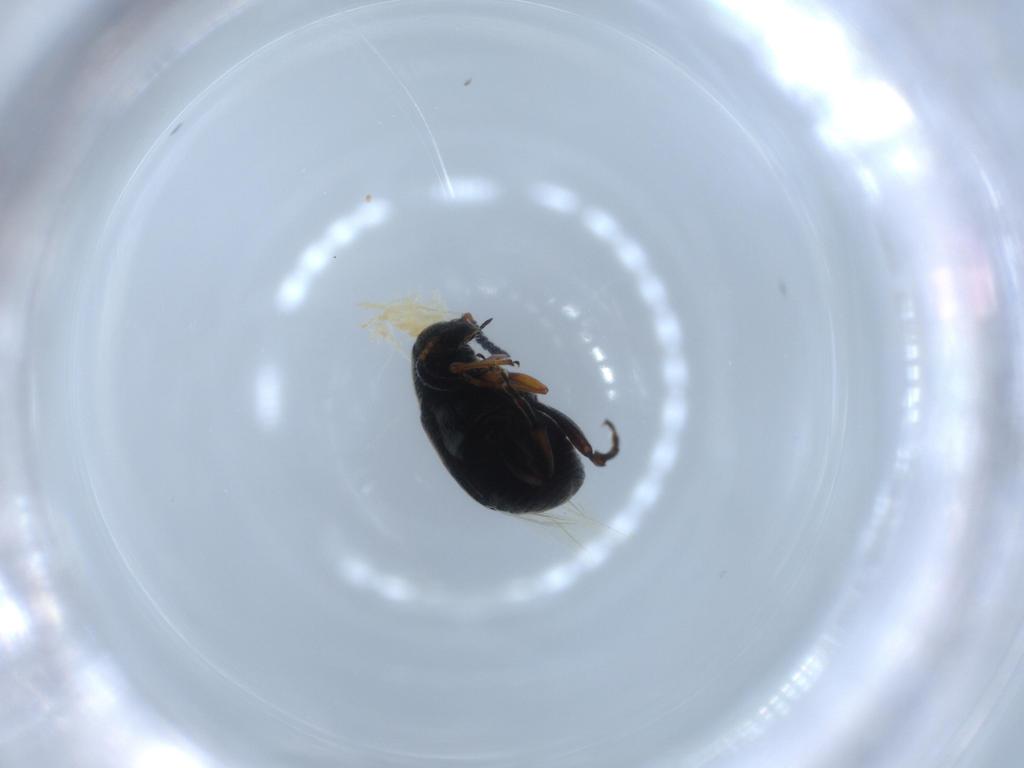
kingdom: Animalia
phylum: Arthropoda
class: Insecta
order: Coleoptera
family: Chrysomelidae
